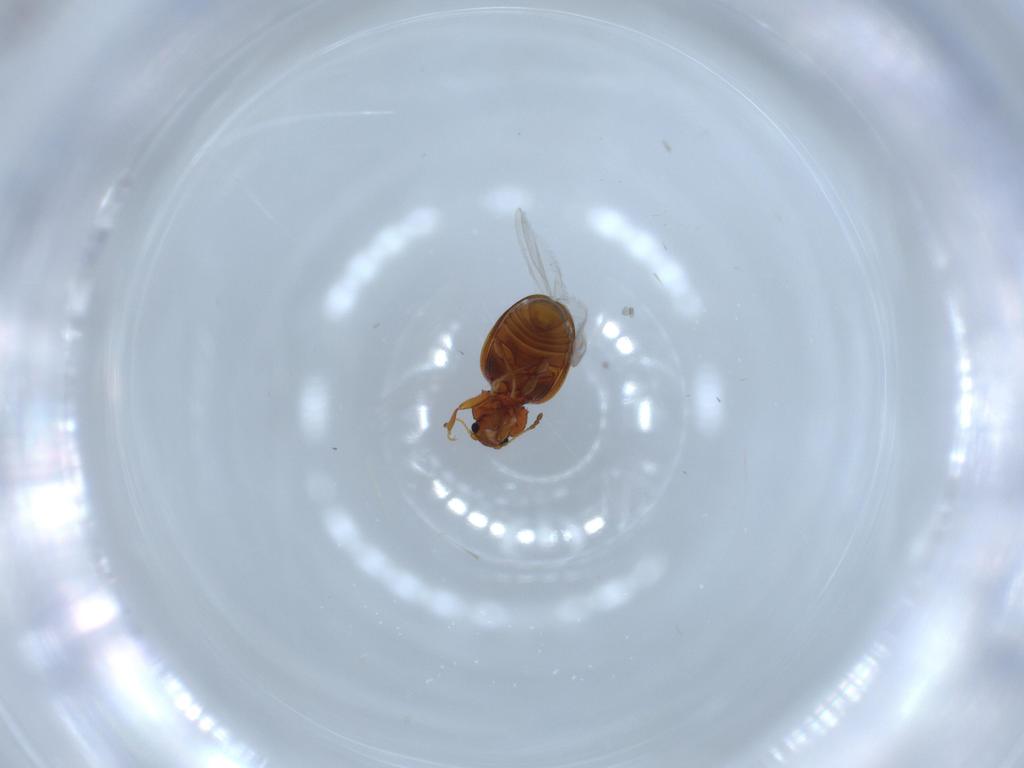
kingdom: Animalia
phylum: Arthropoda
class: Insecta
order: Coleoptera
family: Latridiidae
